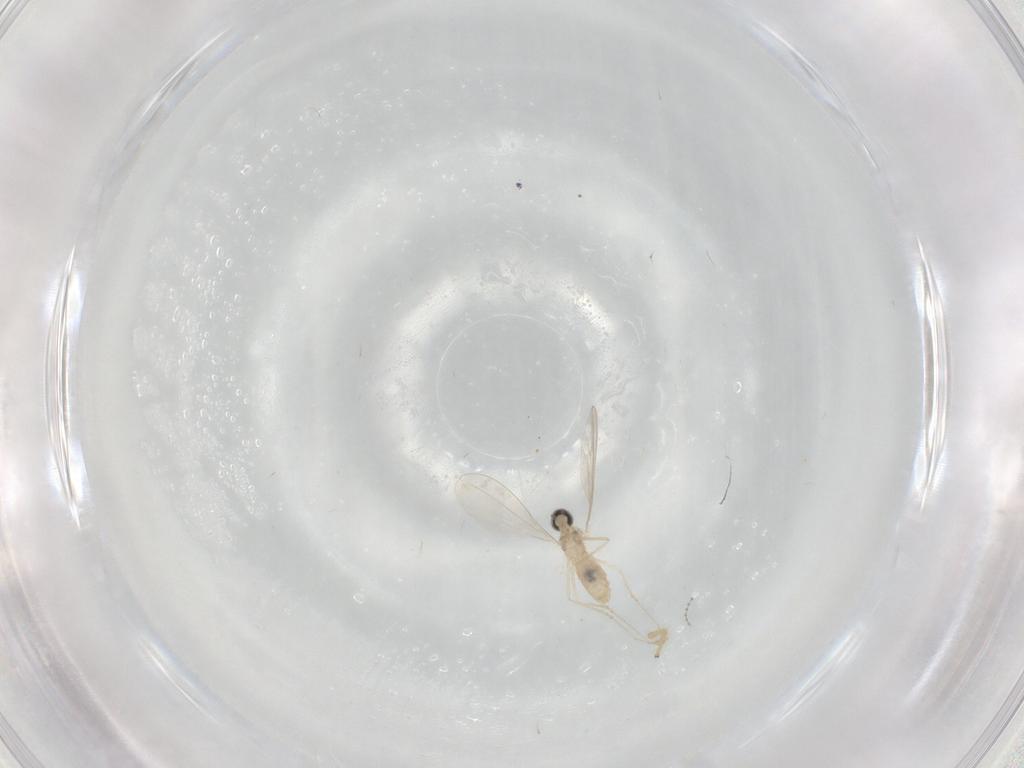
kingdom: Animalia
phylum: Arthropoda
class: Insecta
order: Diptera
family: Chironomidae
